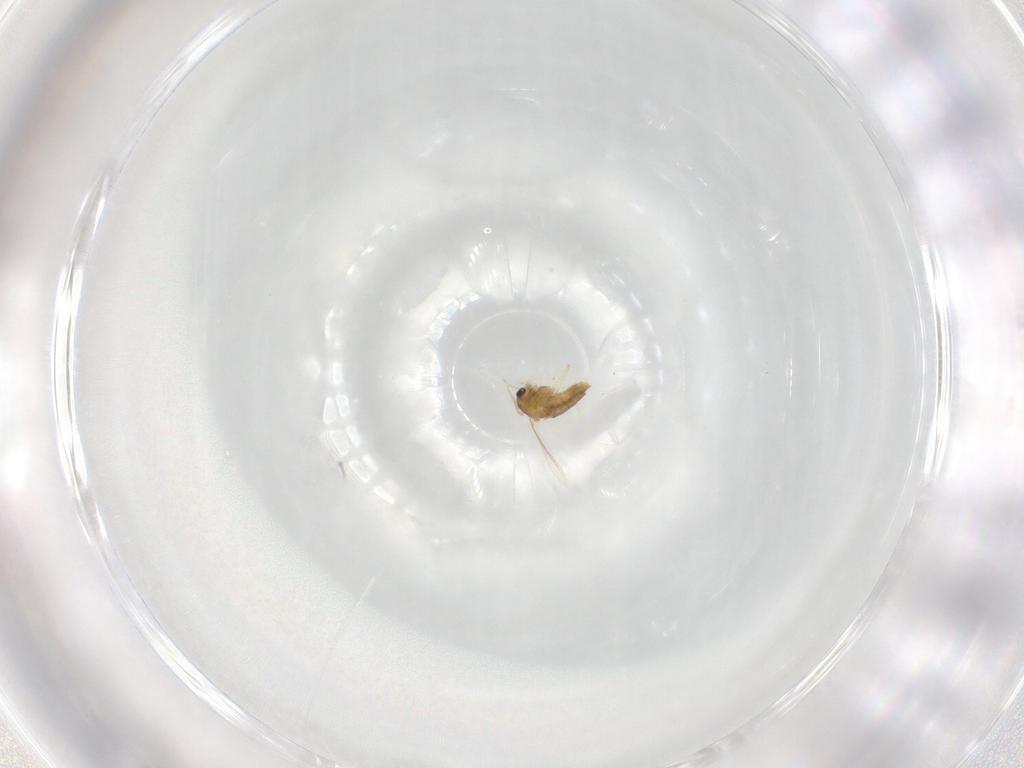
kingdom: Animalia
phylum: Arthropoda
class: Insecta
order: Diptera
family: Chironomidae
